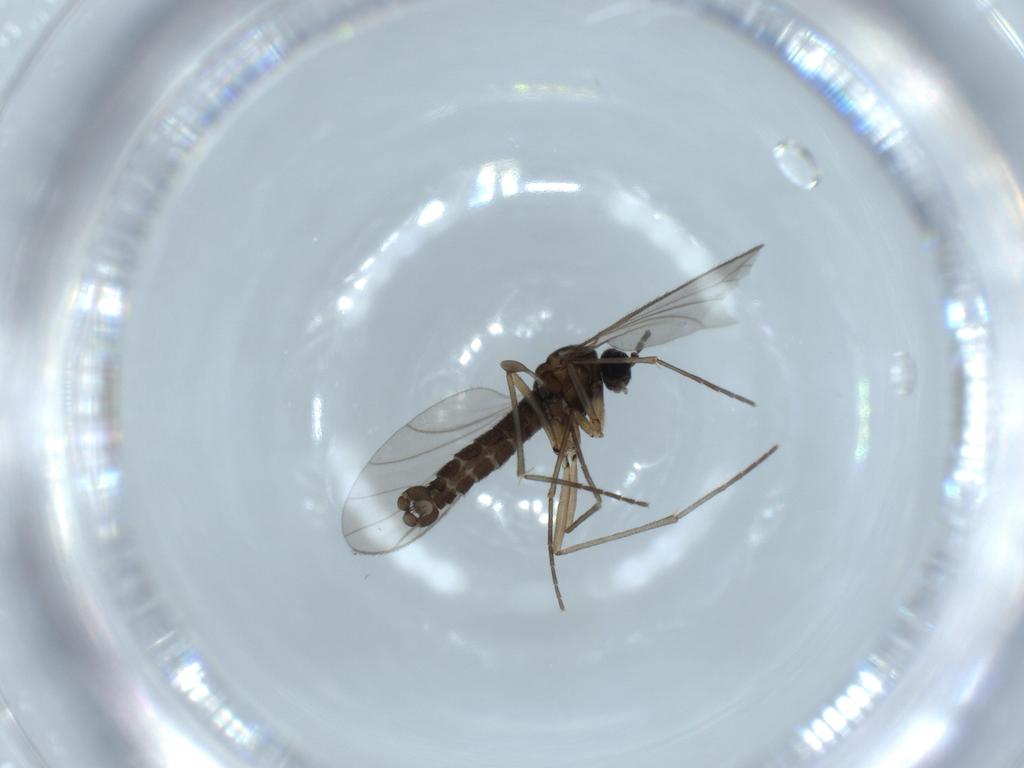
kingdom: Animalia
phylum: Arthropoda
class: Insecta
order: Diptera
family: Sciaridae
